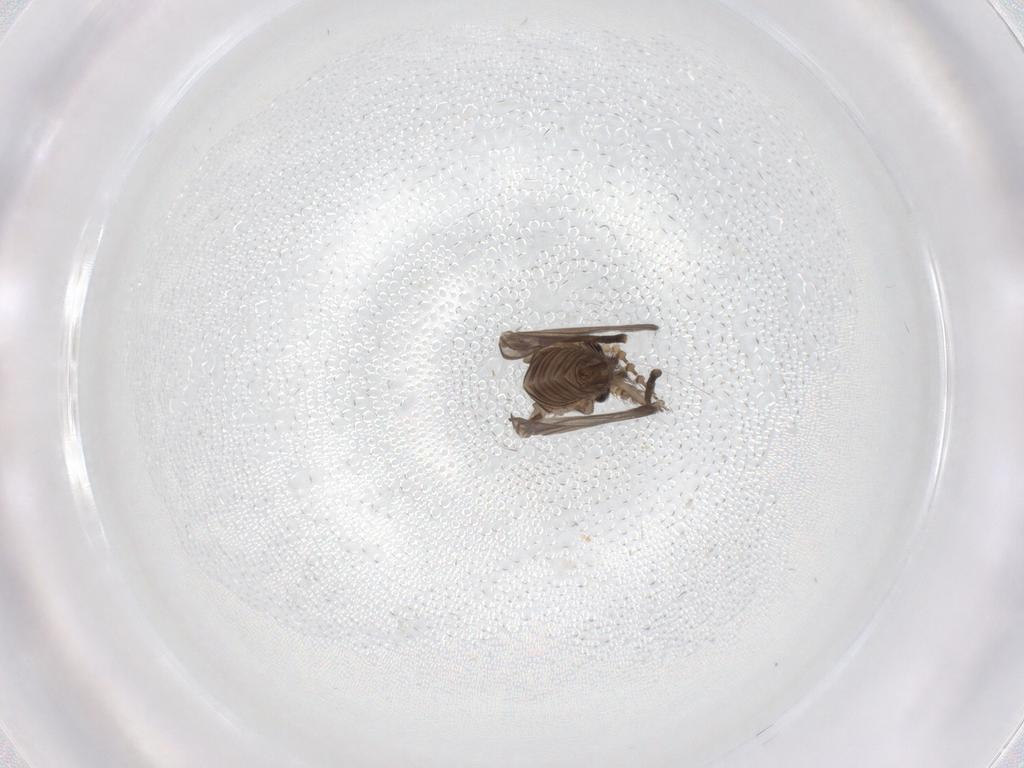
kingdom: Animalia
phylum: Arthropoda
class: Insecta
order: Diptera
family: Psychodidae
